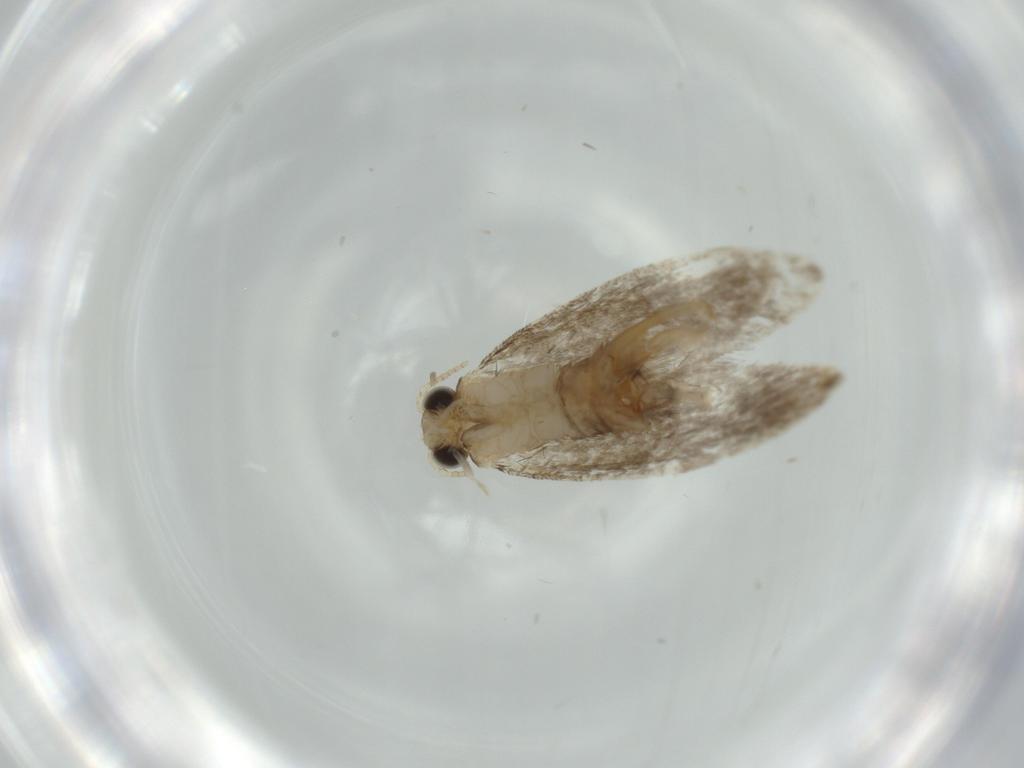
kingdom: Animalia
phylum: Arthropoda
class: Insecta
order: Lepidoptera
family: Tineidae
